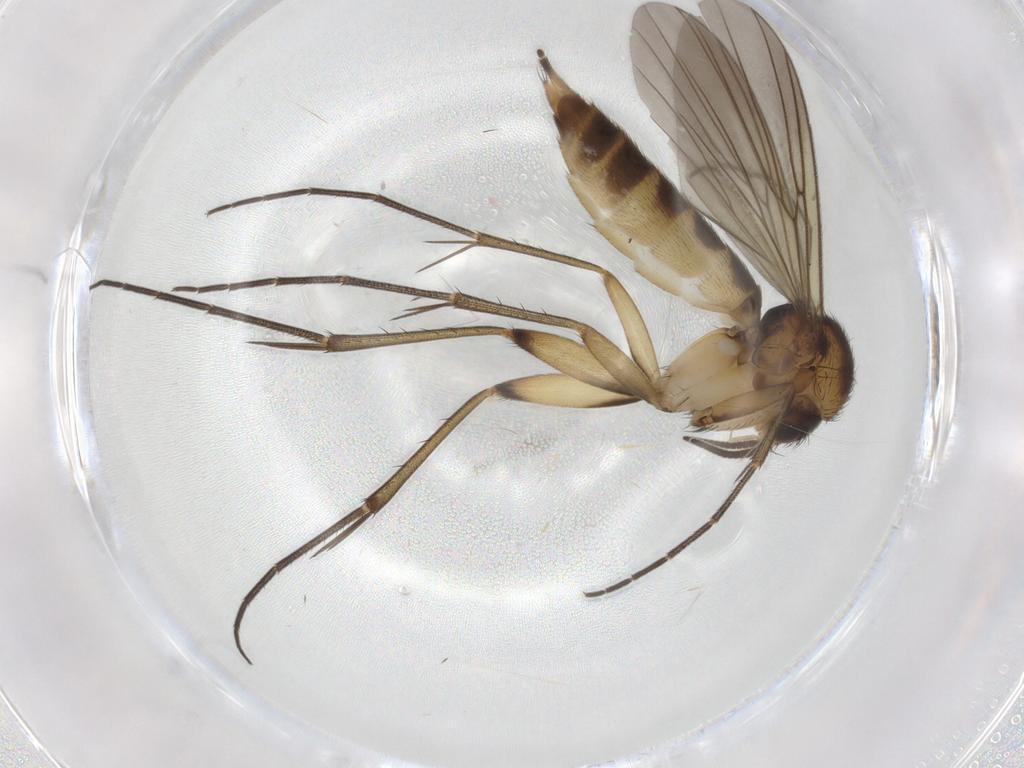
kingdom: Animalia
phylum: Arthropoda
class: Insecta
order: Diptera
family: Mycetophilidae
